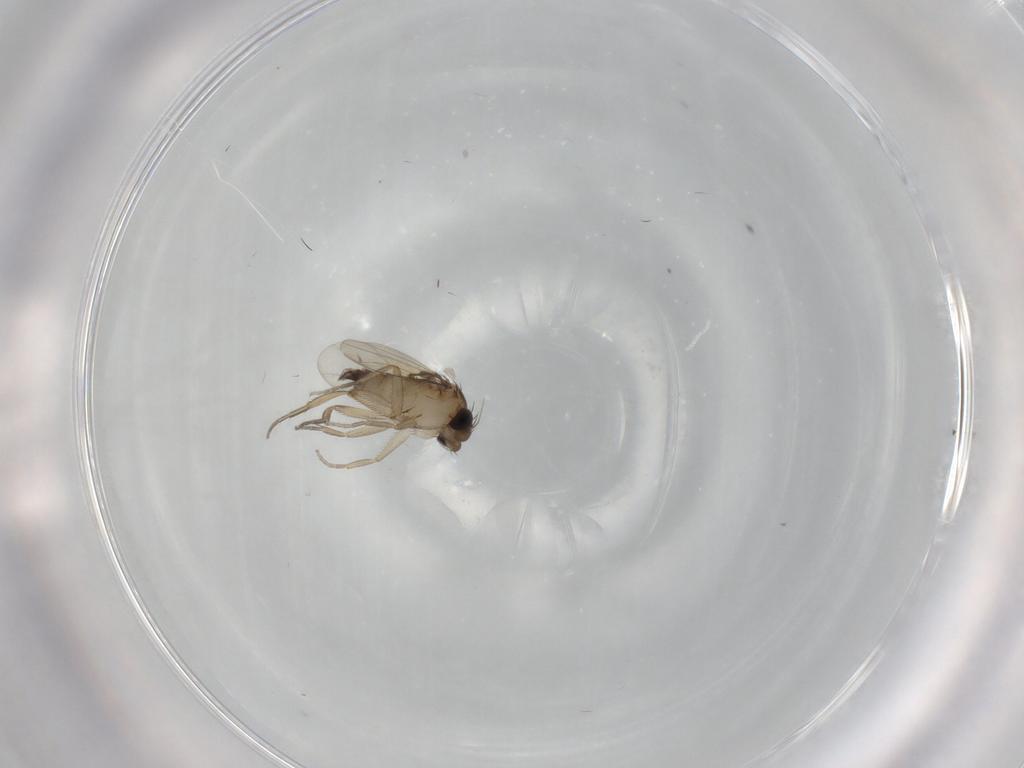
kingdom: Animalia
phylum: Arthropoda
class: Insecta
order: Diptera
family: Phoridae
